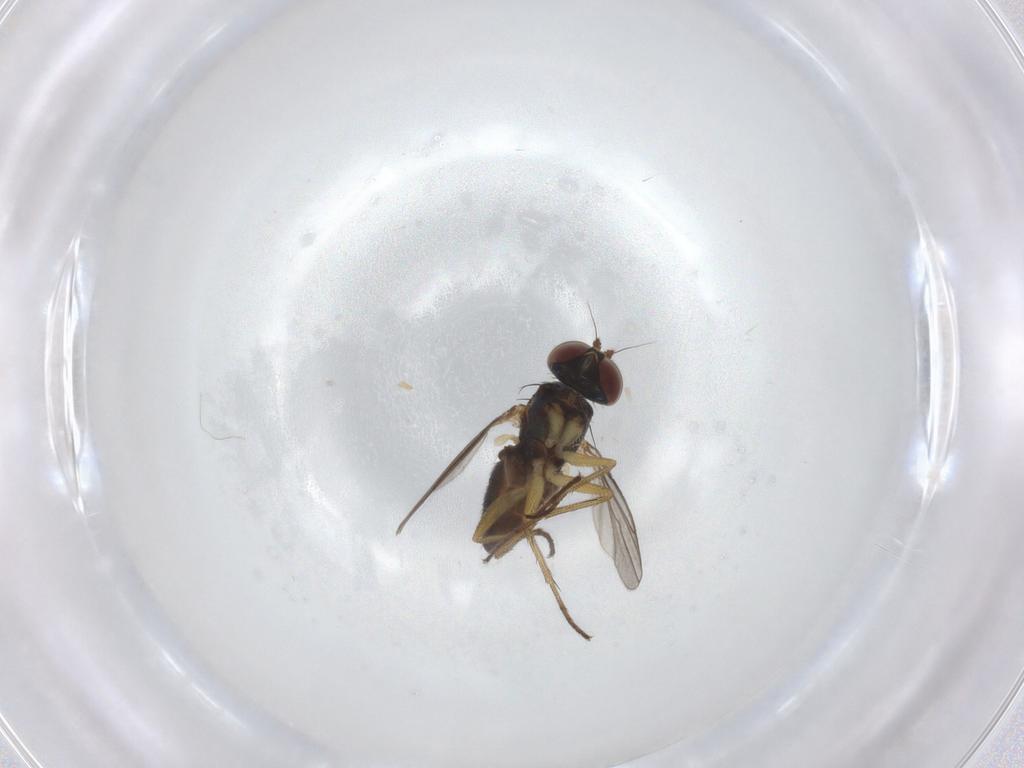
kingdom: Animalia
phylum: Arthropoda
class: Insecta
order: Diptera
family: Dolichopodidae
